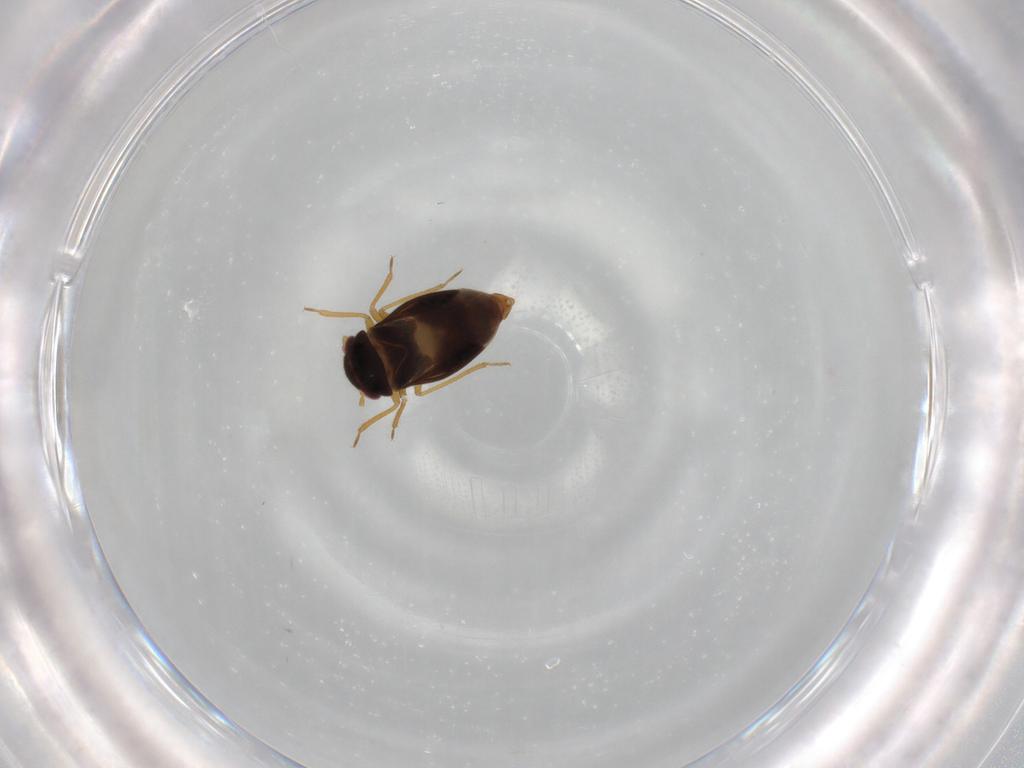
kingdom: Animalia
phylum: Arthropoda
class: Insecta
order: Hemiptera
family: Schizopteridae
